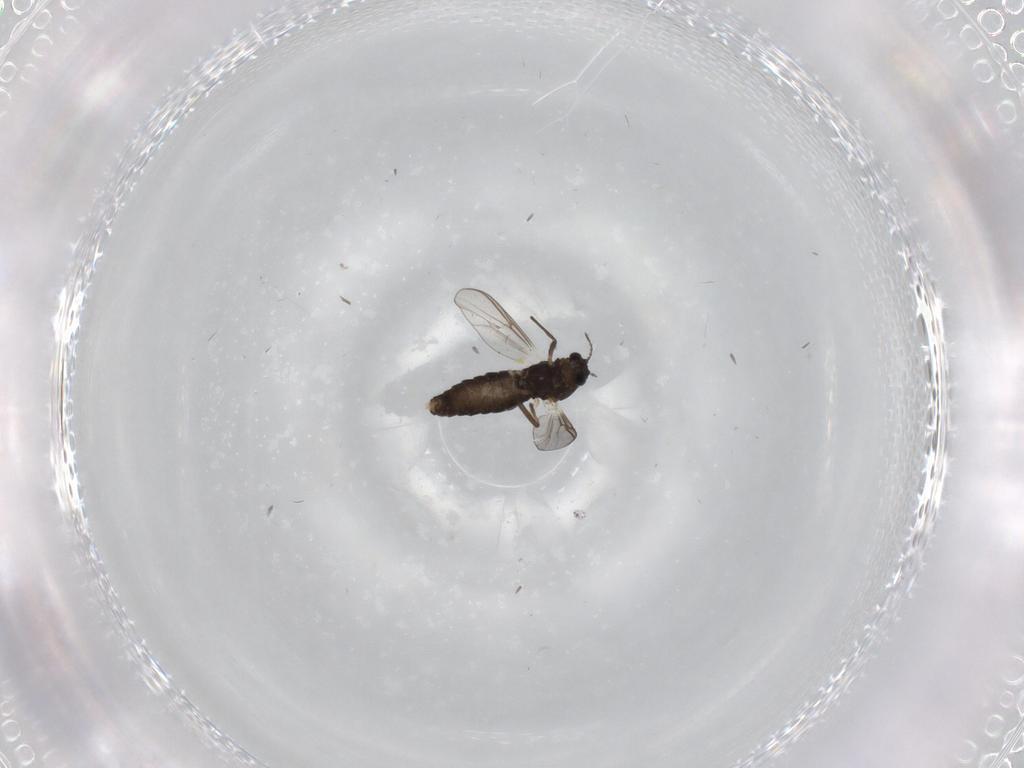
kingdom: Animalia
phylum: Arthropoda
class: Insecta
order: Diptera
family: Chironomidae
